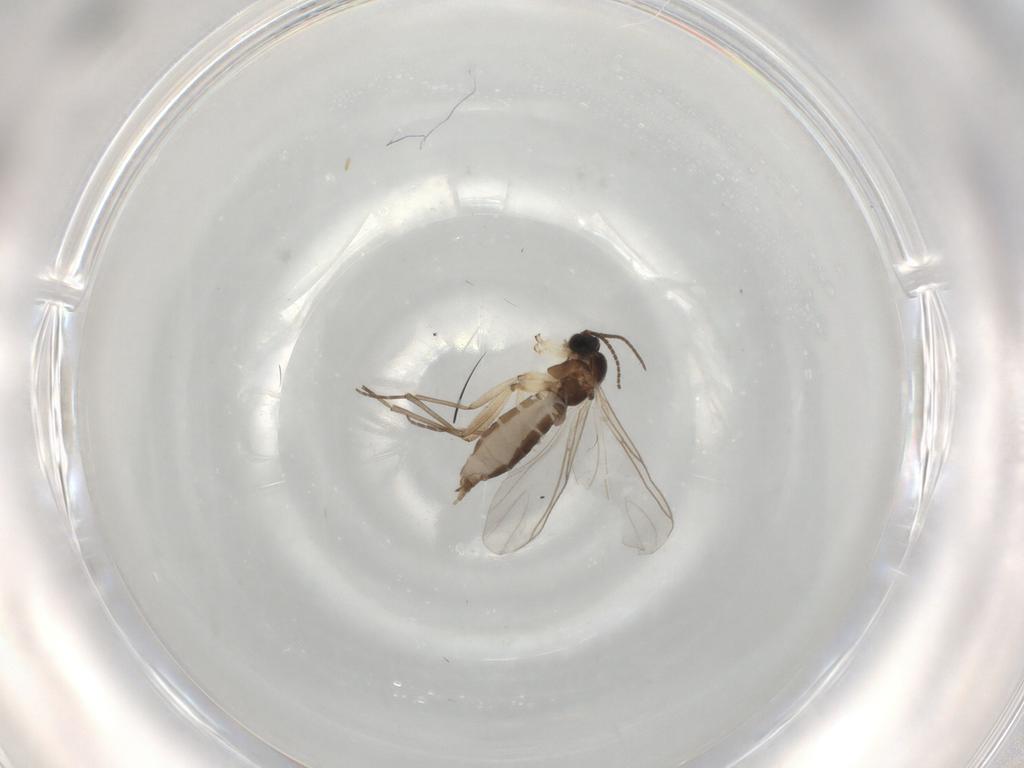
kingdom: Animalia
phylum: Arthropoda
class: Insecta
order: Diptera
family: Sciaridae
